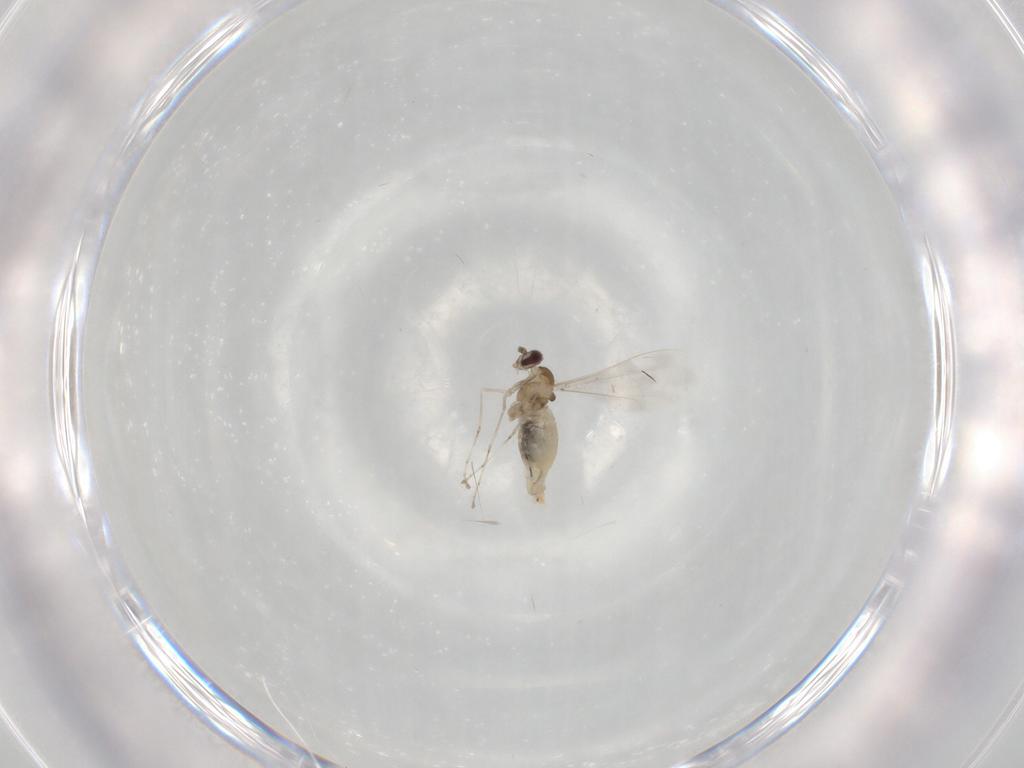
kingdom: Animalia
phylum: Arthropoda
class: Insecta
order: Diptera
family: Cecidomyiidae
